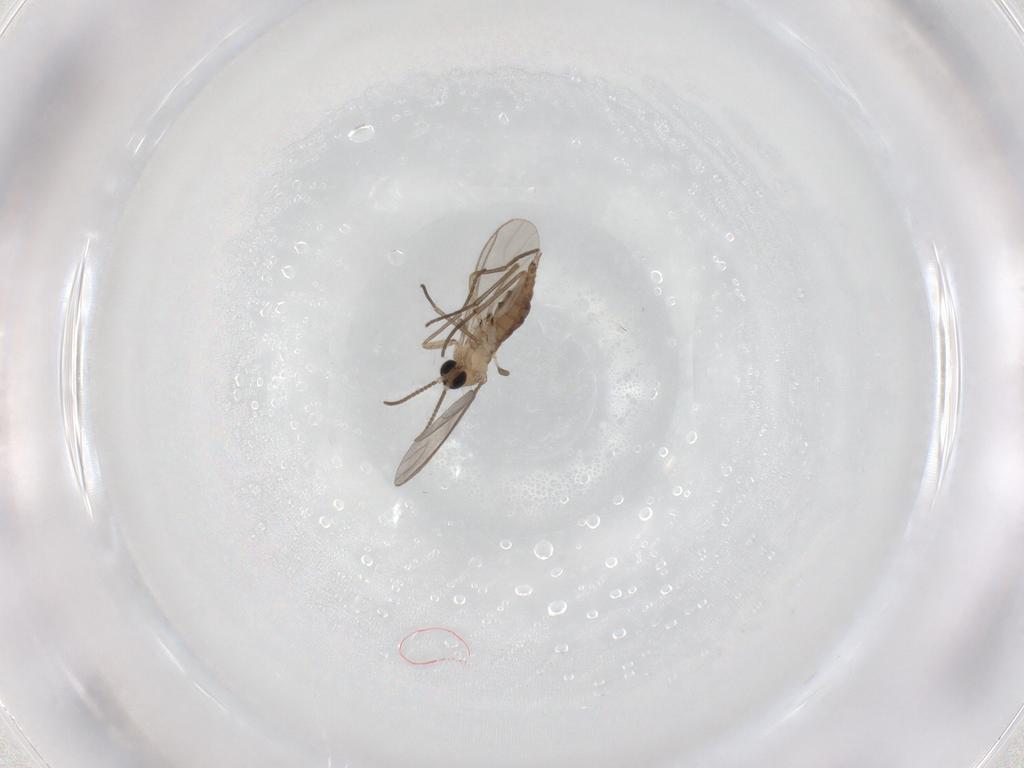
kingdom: Animalia
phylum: Arthropoda
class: Insecta
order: Diptera
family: Sciaridae
